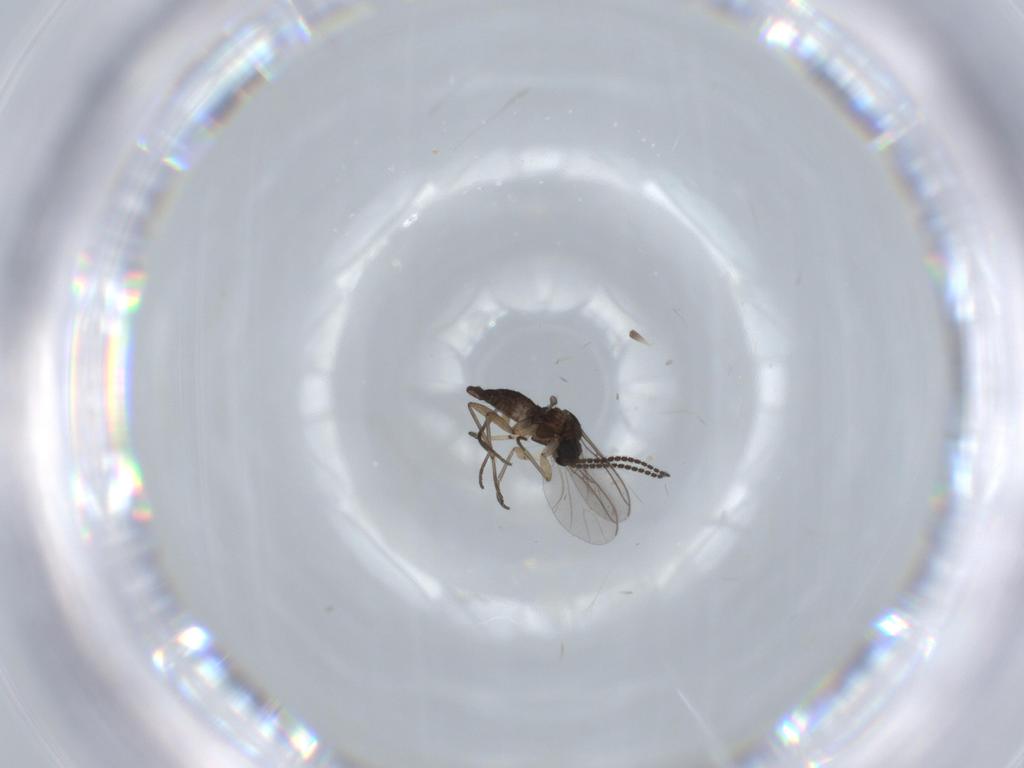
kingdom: Animalia
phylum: Arthropoda
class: Insecta
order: Diptera
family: Sciaridae
